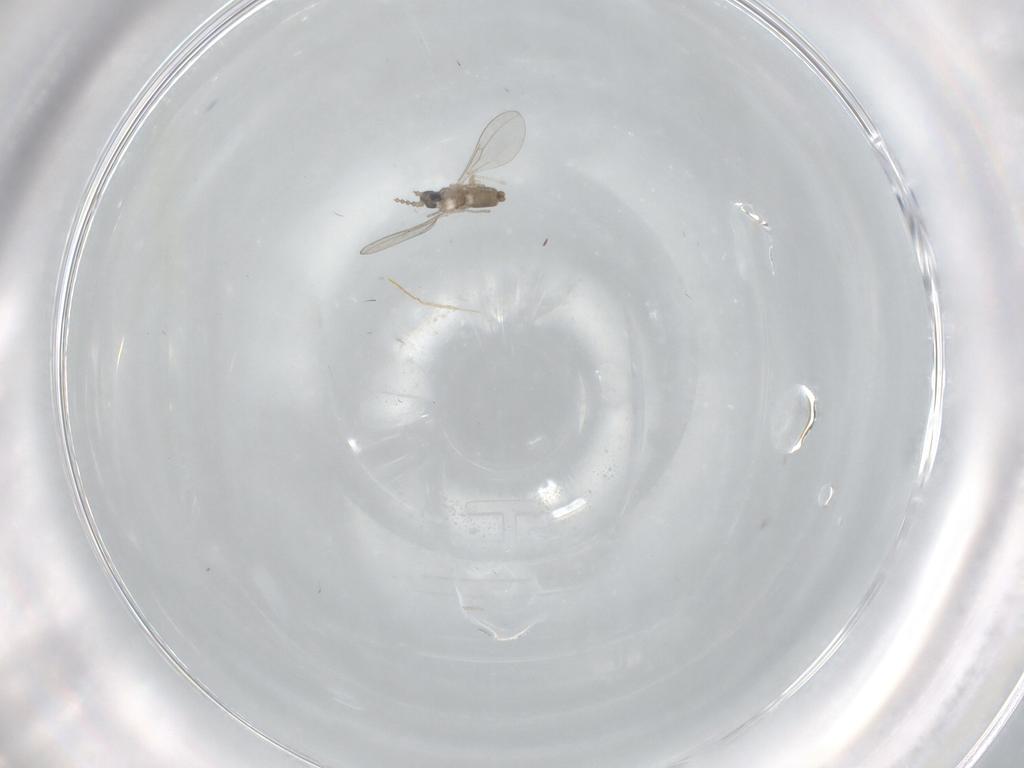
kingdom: Animalia
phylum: Arthropoda
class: Insecta
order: Diptera
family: Cecidomyiidae
